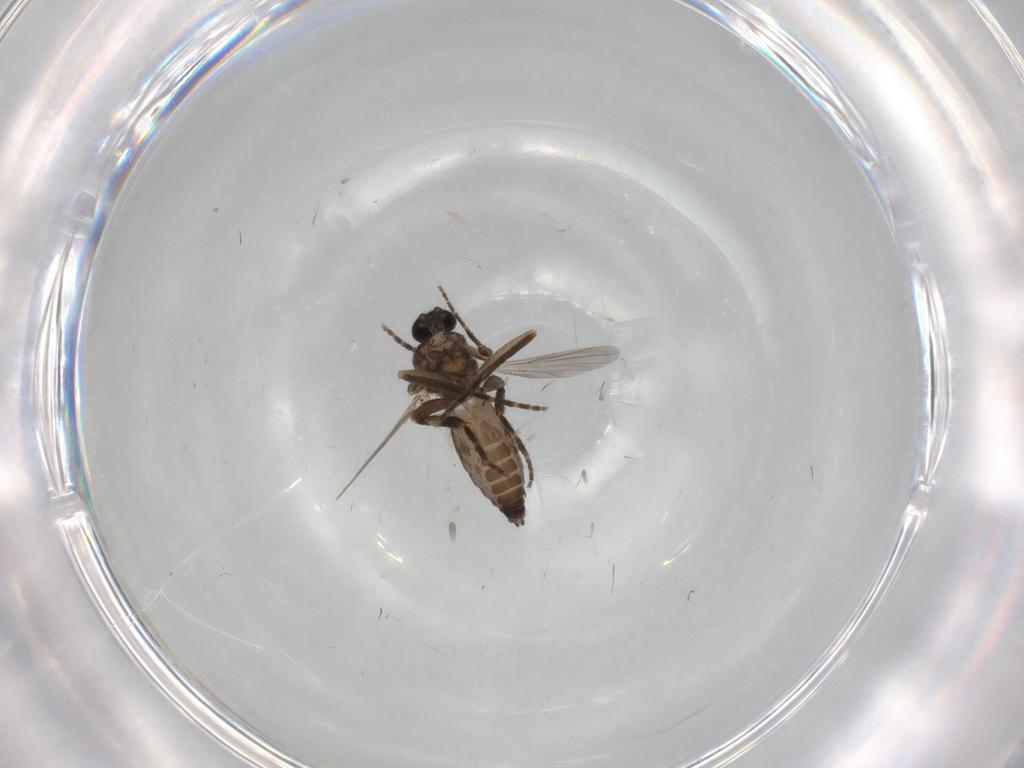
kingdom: Animalia
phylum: Arthropoda
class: Insecta
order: Diptera
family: Ceratopogonidae
